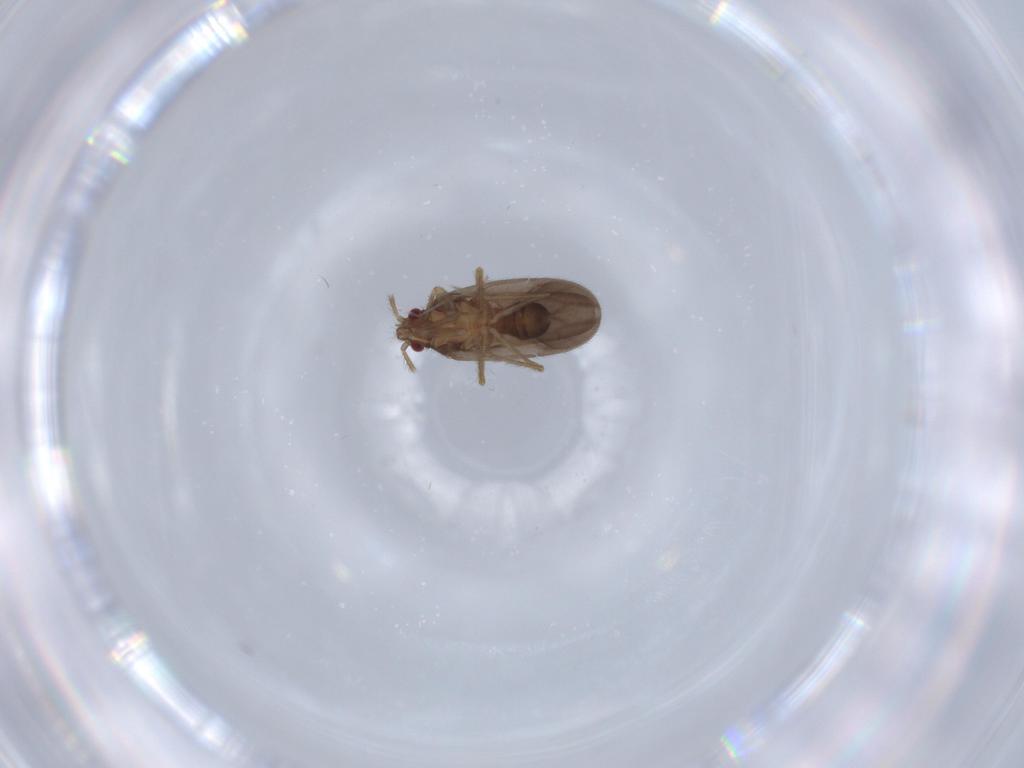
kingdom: Animalia
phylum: Arthropoda
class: Insecta
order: Hemiptera
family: Ceratocombidae
